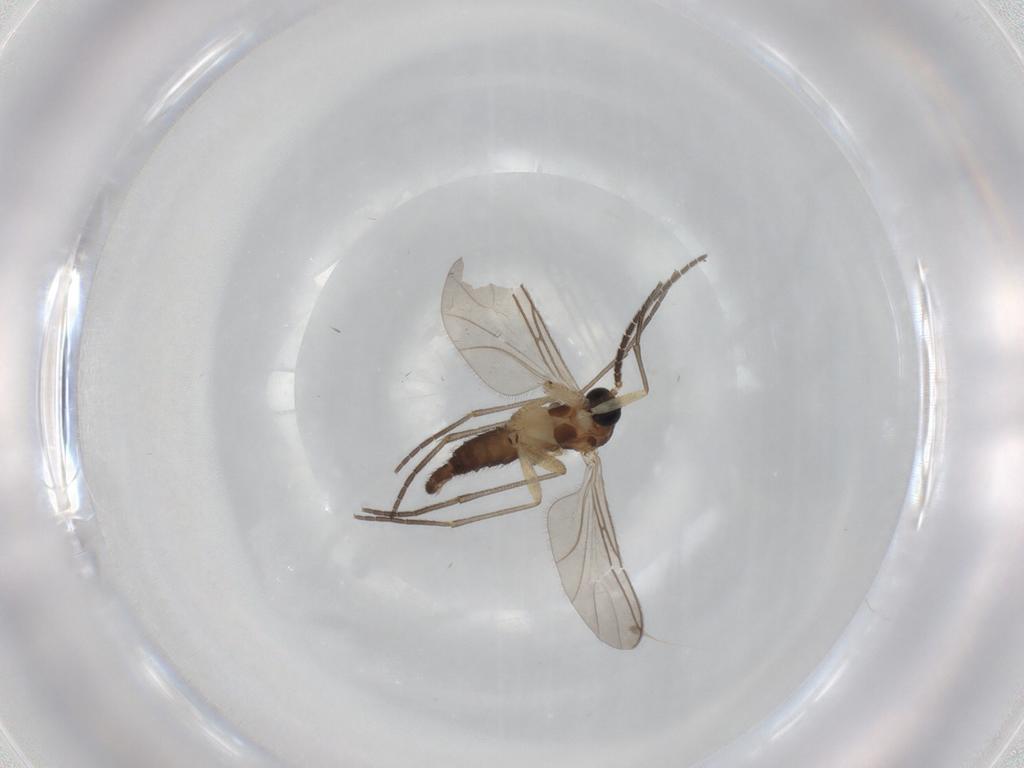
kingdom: Animalia
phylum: Arthropoda
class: Insecta
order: Diptera
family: Sciaridae
